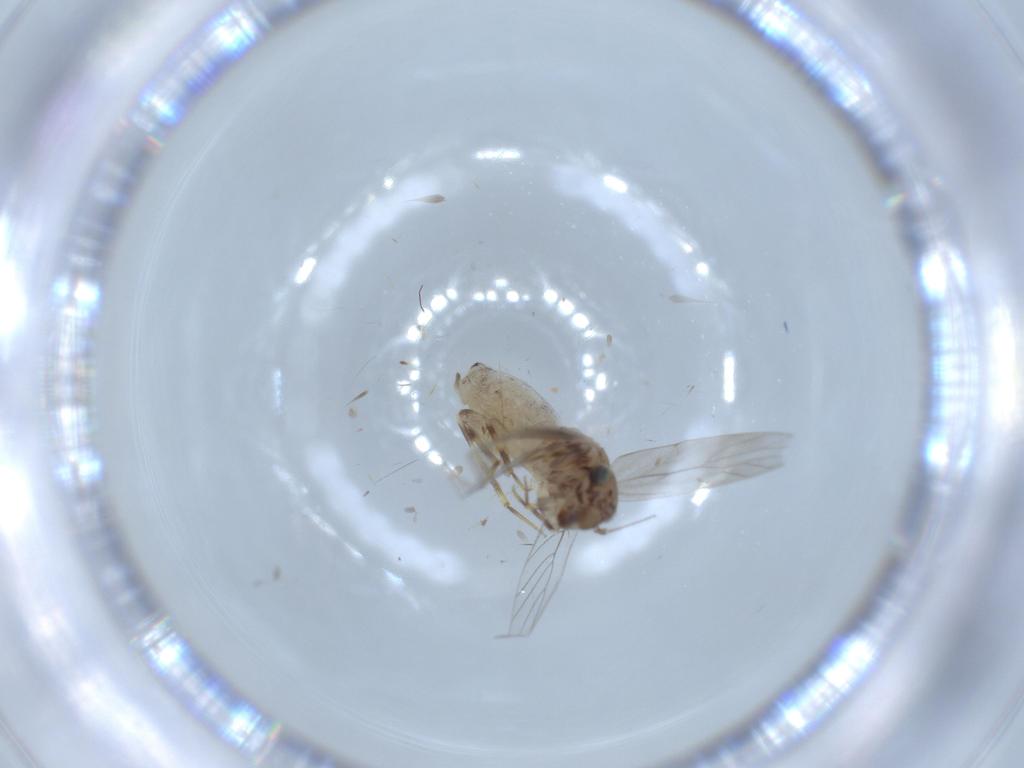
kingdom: Animalia
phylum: Arthropoda
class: Insecta
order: Psocodea
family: Lepidopsocidae
